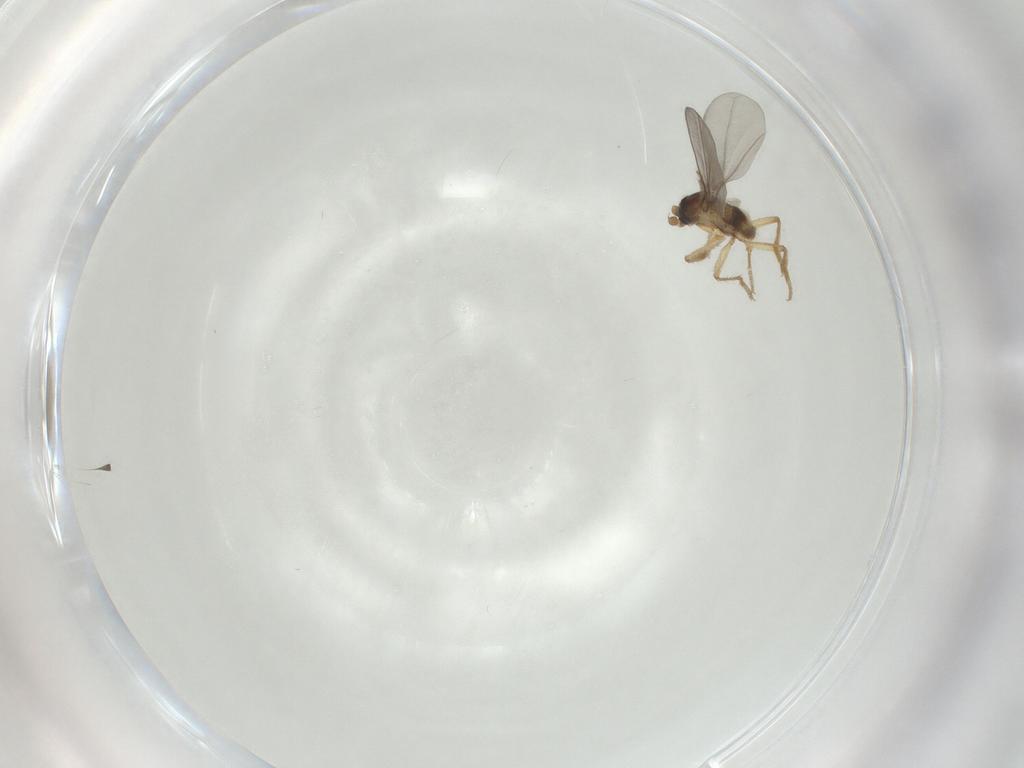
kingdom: Animalia
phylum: Arthropoda
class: Insecta
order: Diptera
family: Phoridae
